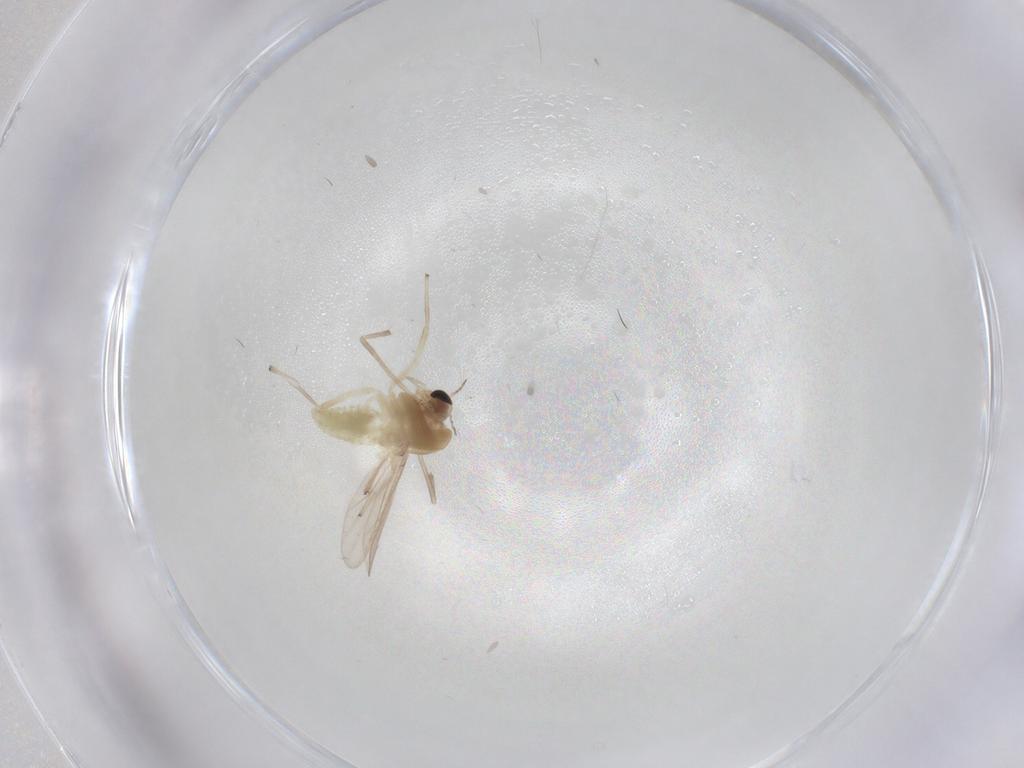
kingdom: Animalia
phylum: Arthropoda
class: Insecta
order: Diptera
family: Chironomidae
